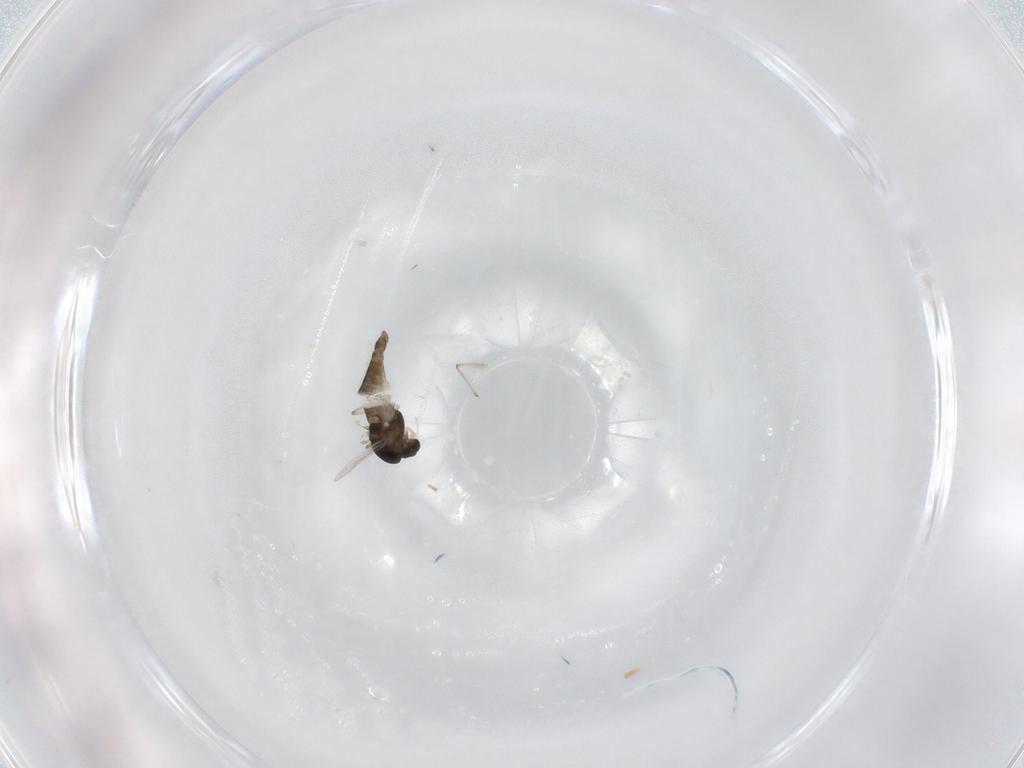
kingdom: Animalia
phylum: Arthropoda
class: Insecta
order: Diptera
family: Chironomidae
